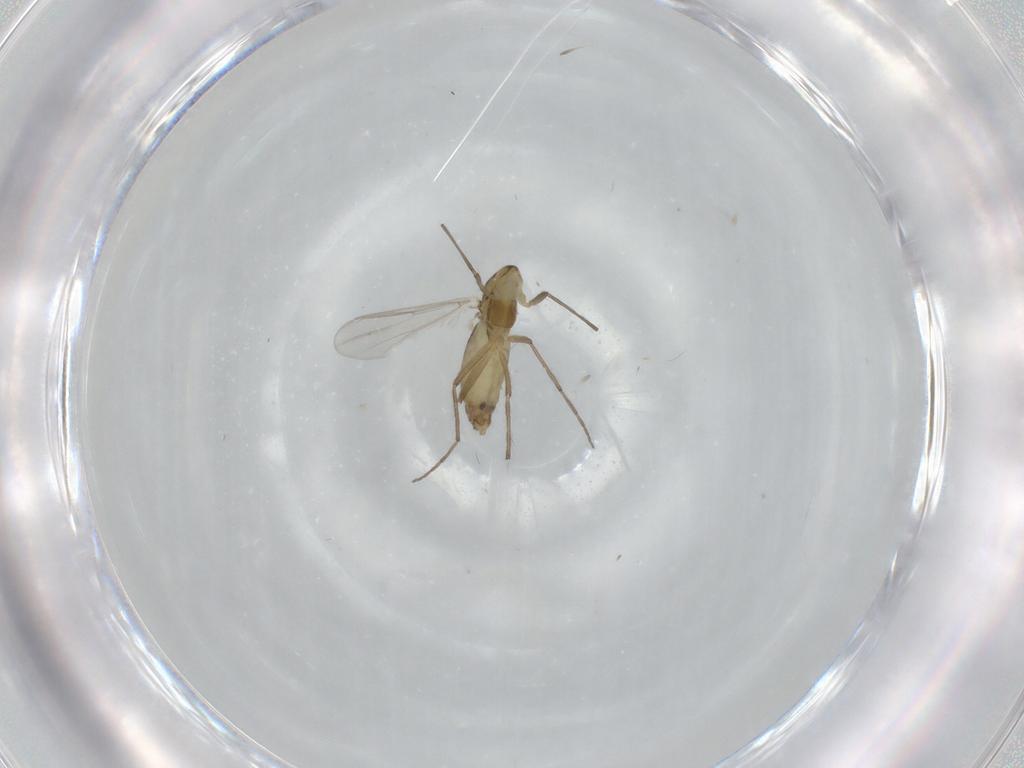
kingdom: Animalia
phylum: Arthropoda
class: Insecta
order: Diptera
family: Chironomidae
